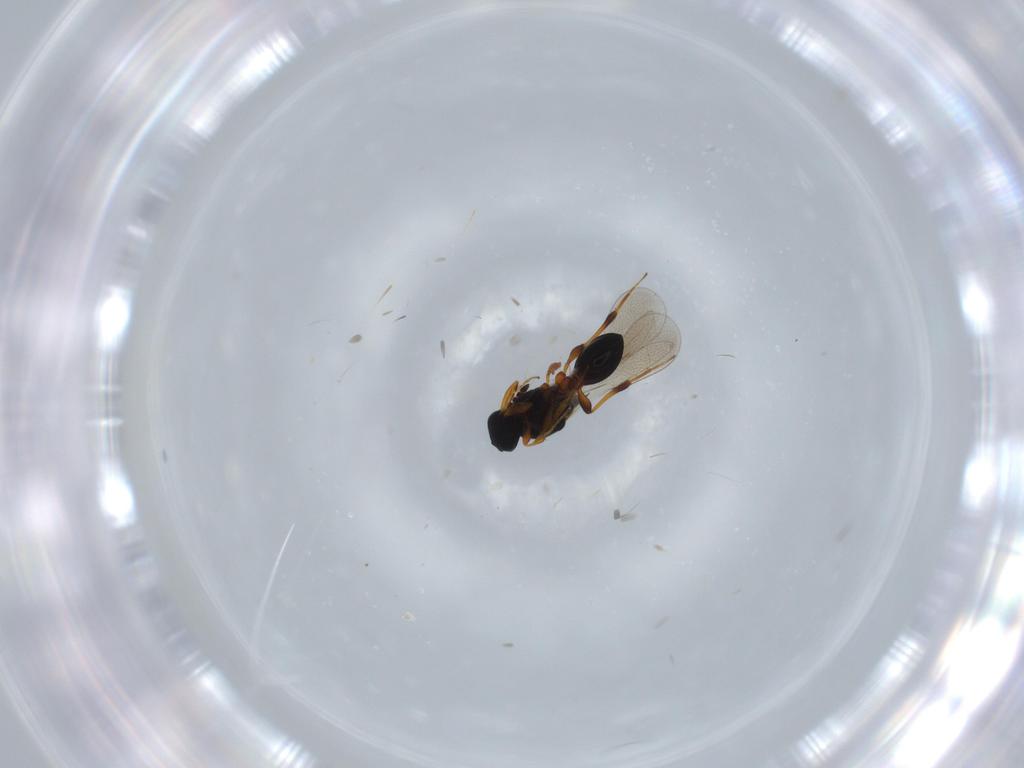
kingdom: Animalia
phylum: Arthropoda
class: Insecta
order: Hymenoptera
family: Platygastridae
